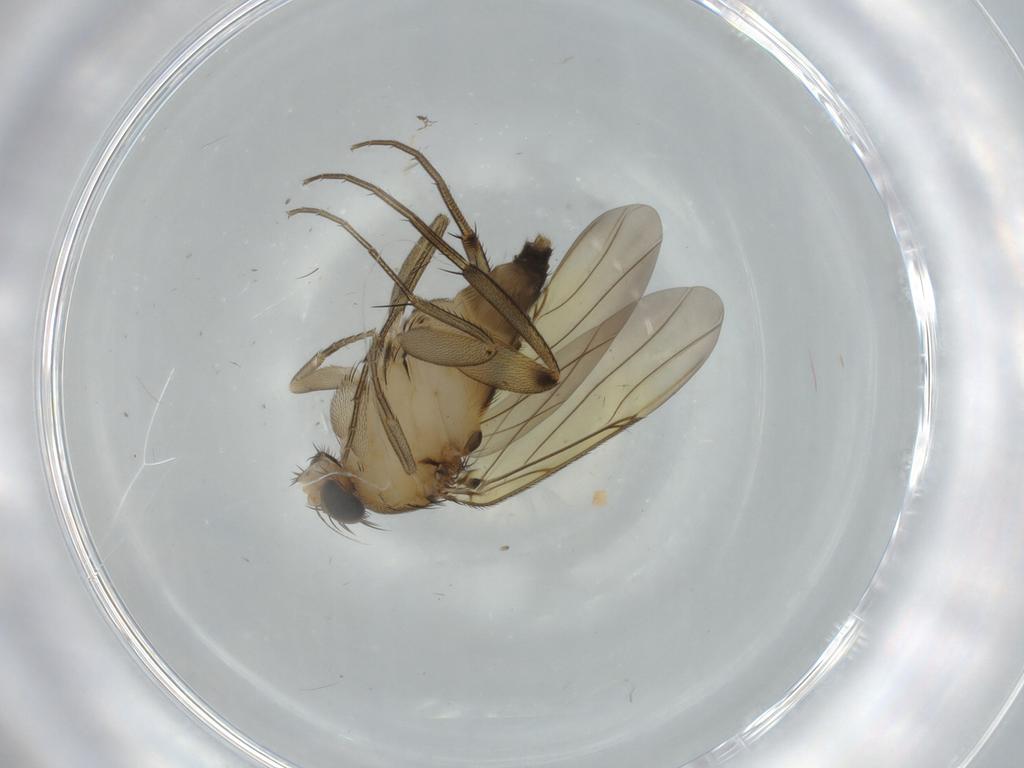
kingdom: Animalia
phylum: Arthropoda
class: Insecta
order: Diptera
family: Phoridae
